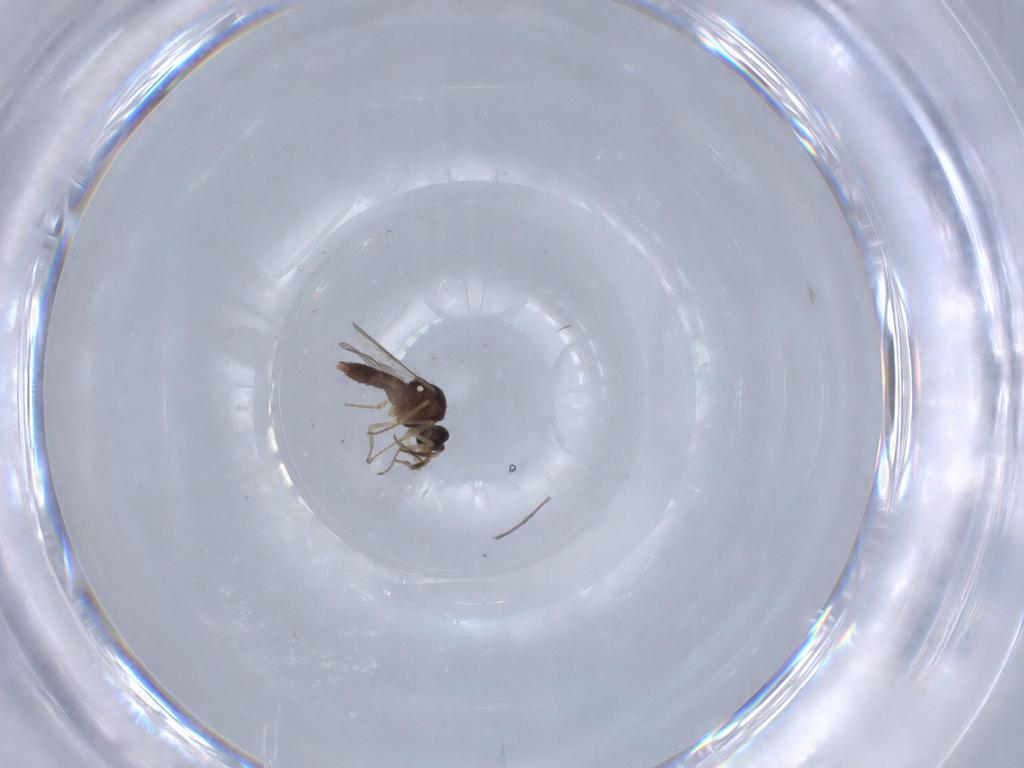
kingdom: Animalia
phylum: Arthropoda
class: Insecta
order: Diptera
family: Ceratopogonidae
